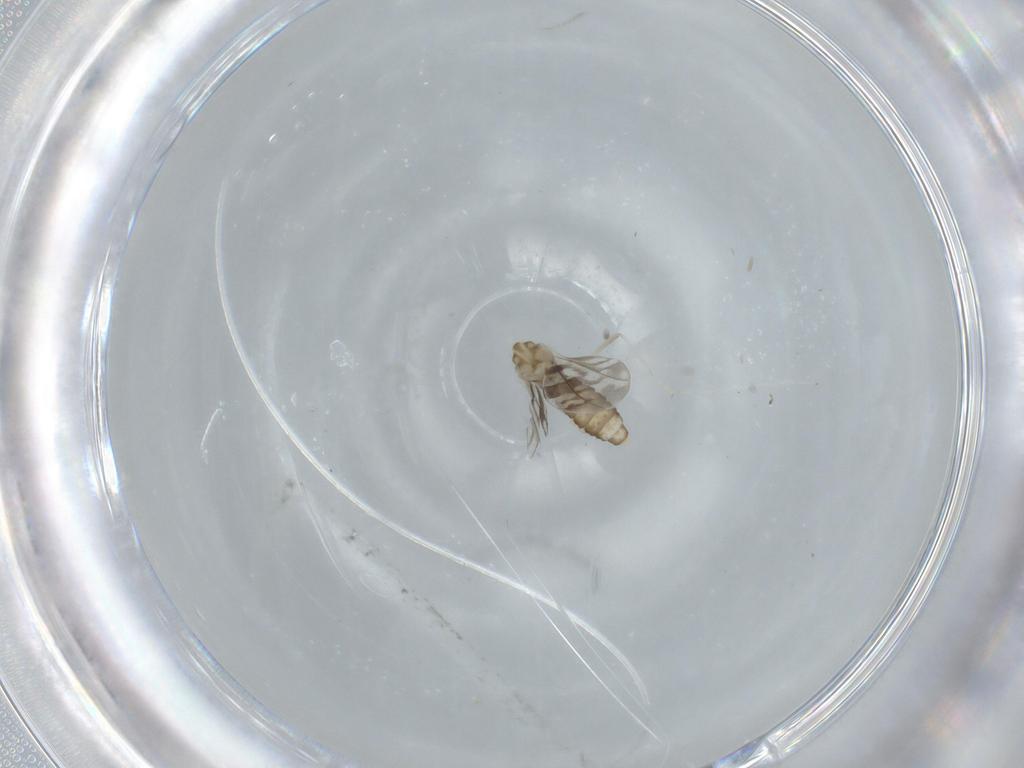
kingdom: Animalia
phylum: Arthropoda
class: Insecta
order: Diptera
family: Cecidomyiidae
